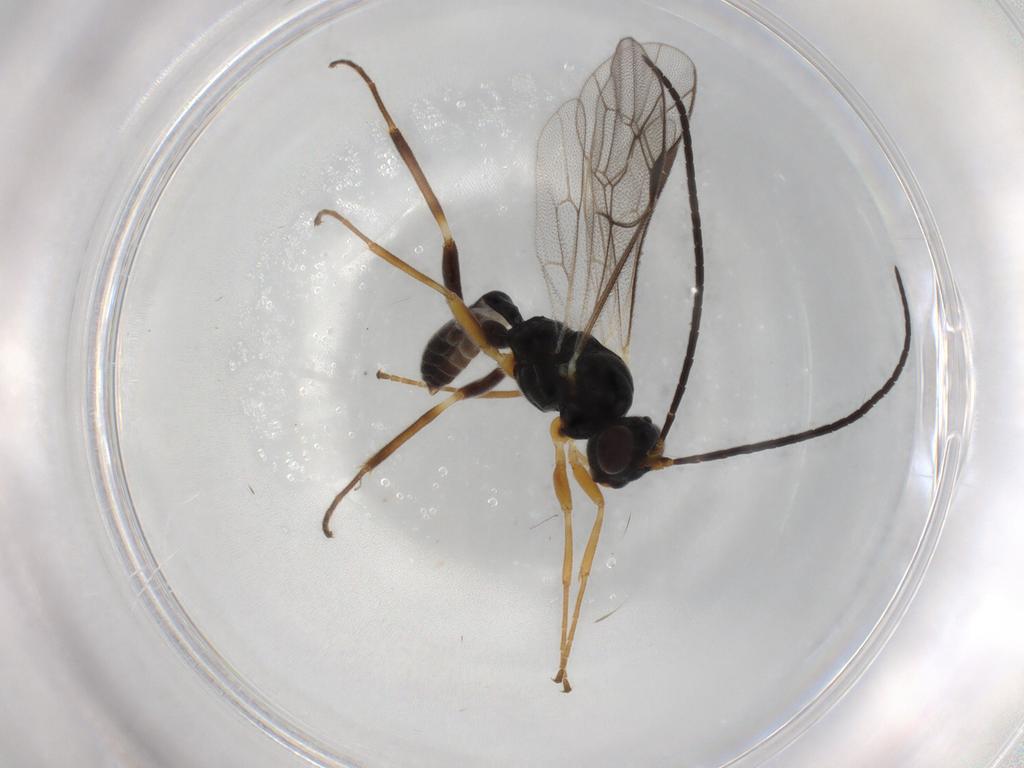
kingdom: Animalia
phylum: Arthropoda
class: Insecta
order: Hymenoptera
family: Ichneumonidae
